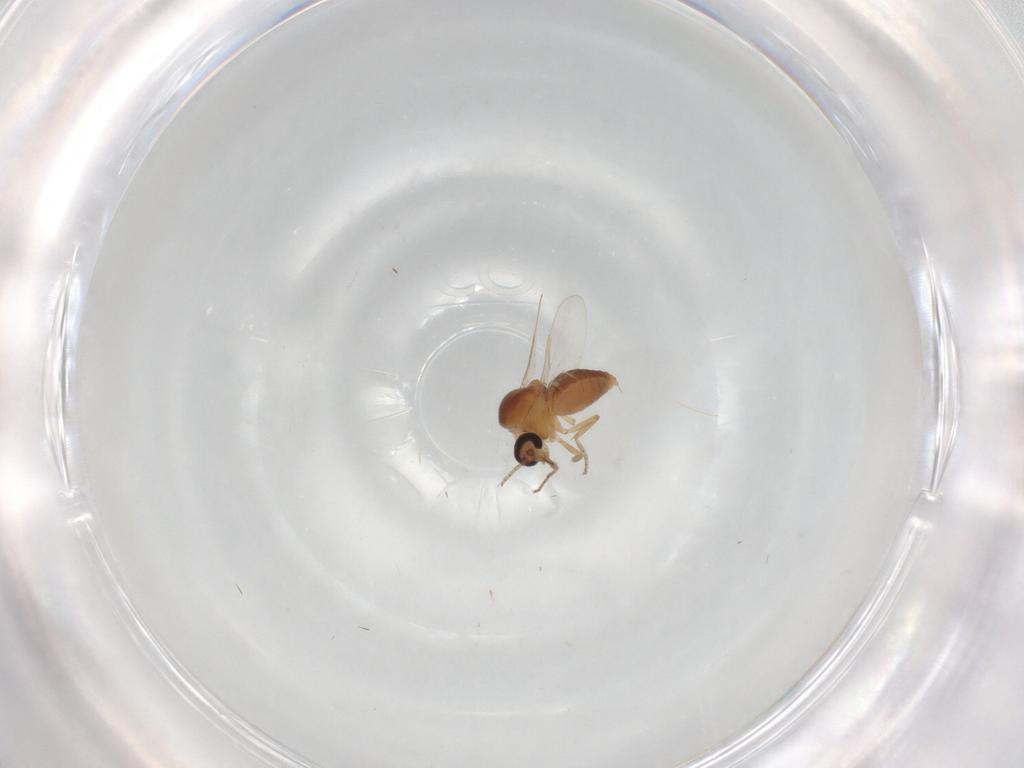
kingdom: Animalia
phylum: Arthropoda
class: Insecta
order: Diptera
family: Ceratopogonidae
